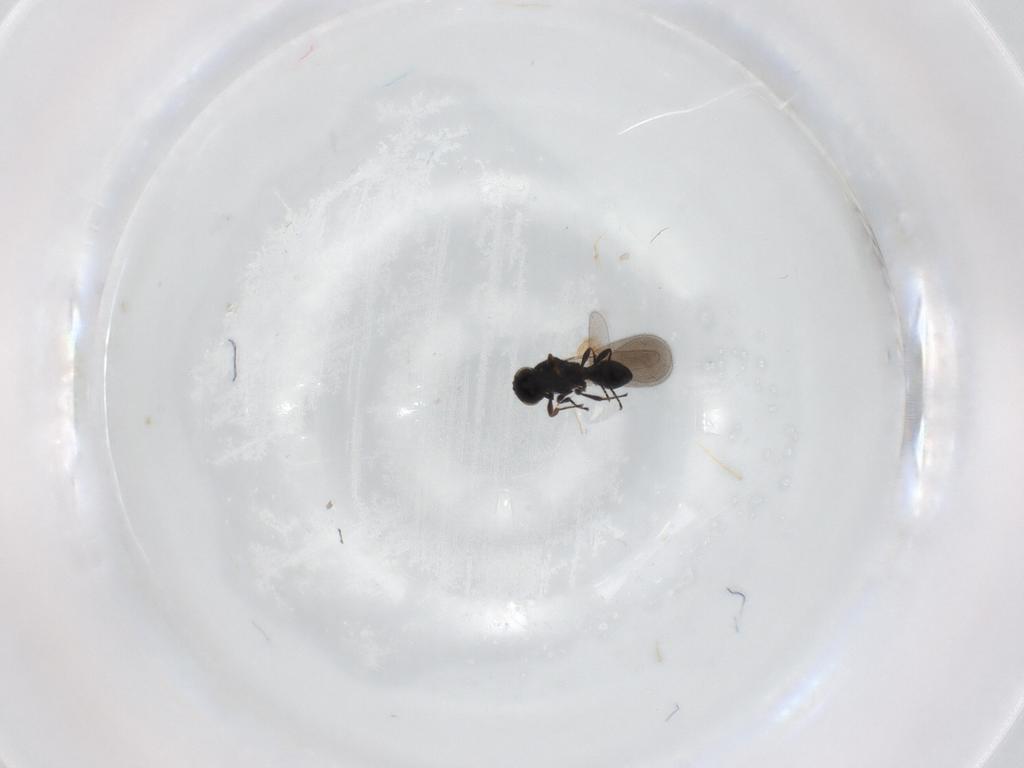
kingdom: Animalia
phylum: Arthropoda
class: Insecta
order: Hymenoptera
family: Platygastridae
